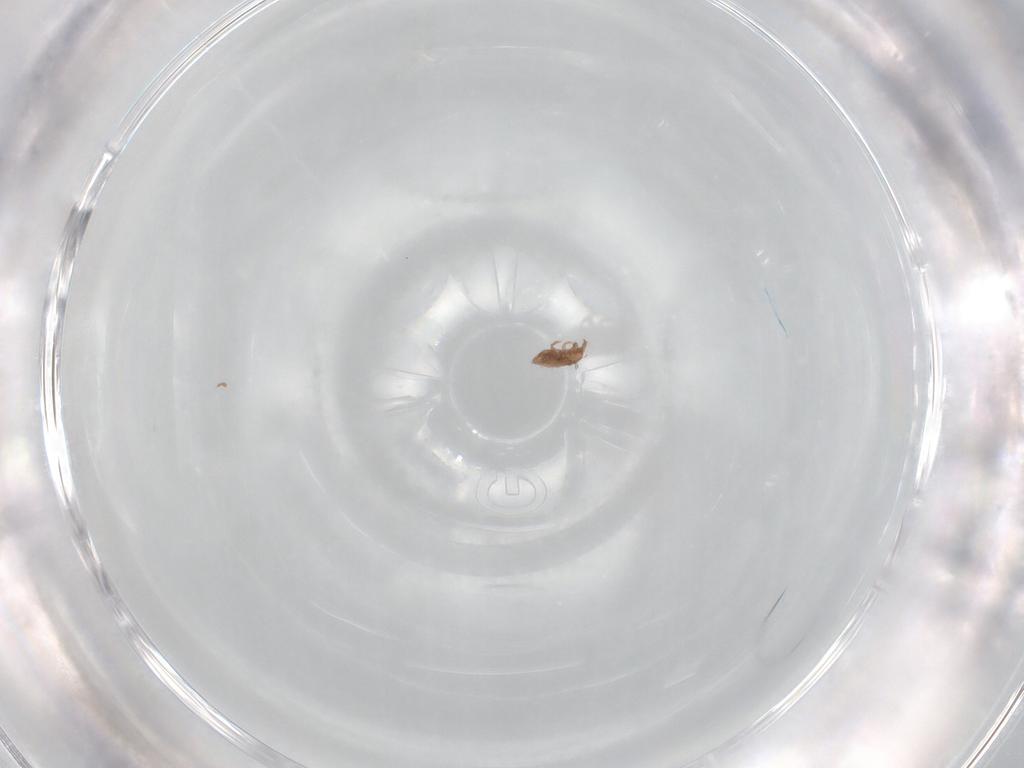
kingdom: Animalia
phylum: Arthropoda
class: Arachnida
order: Sarcoptiformes
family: Phenopelopidae
